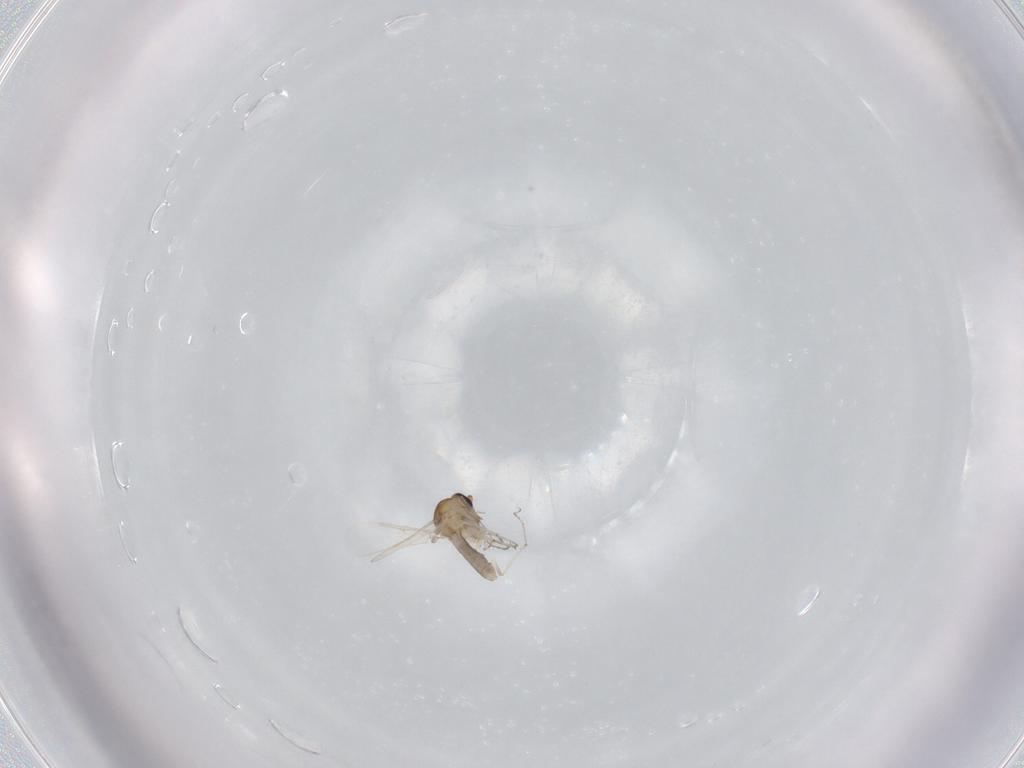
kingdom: Animalia
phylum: Arthropoda
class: Insecta
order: Diptera
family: Ceratopogonidae
